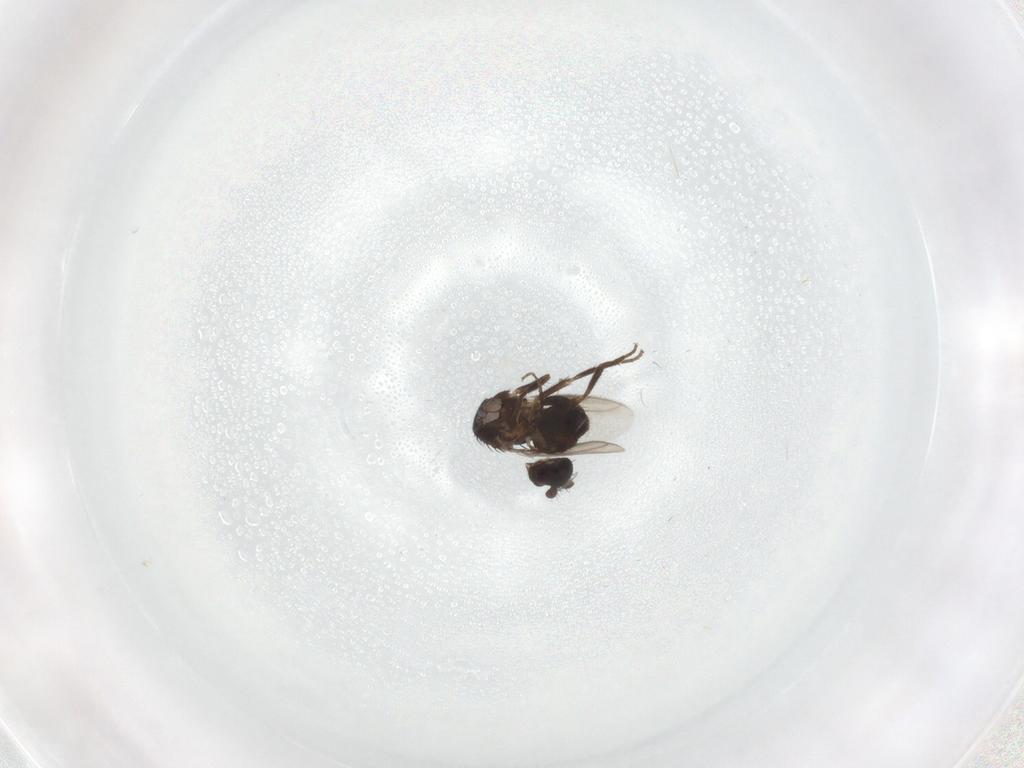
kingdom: Animalia
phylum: Arthropoda
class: Insecta
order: Diptera
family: Sphaeroceridae
